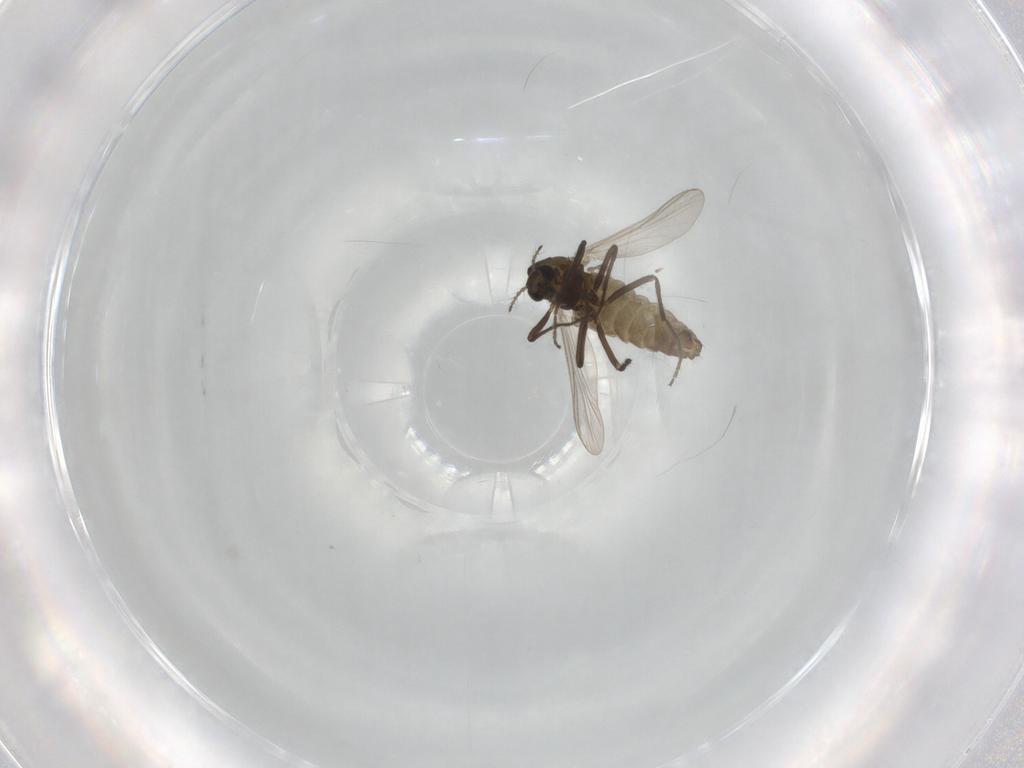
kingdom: Animalia
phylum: Arthropoda
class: Insecta
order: Diptera
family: Chironomidae
